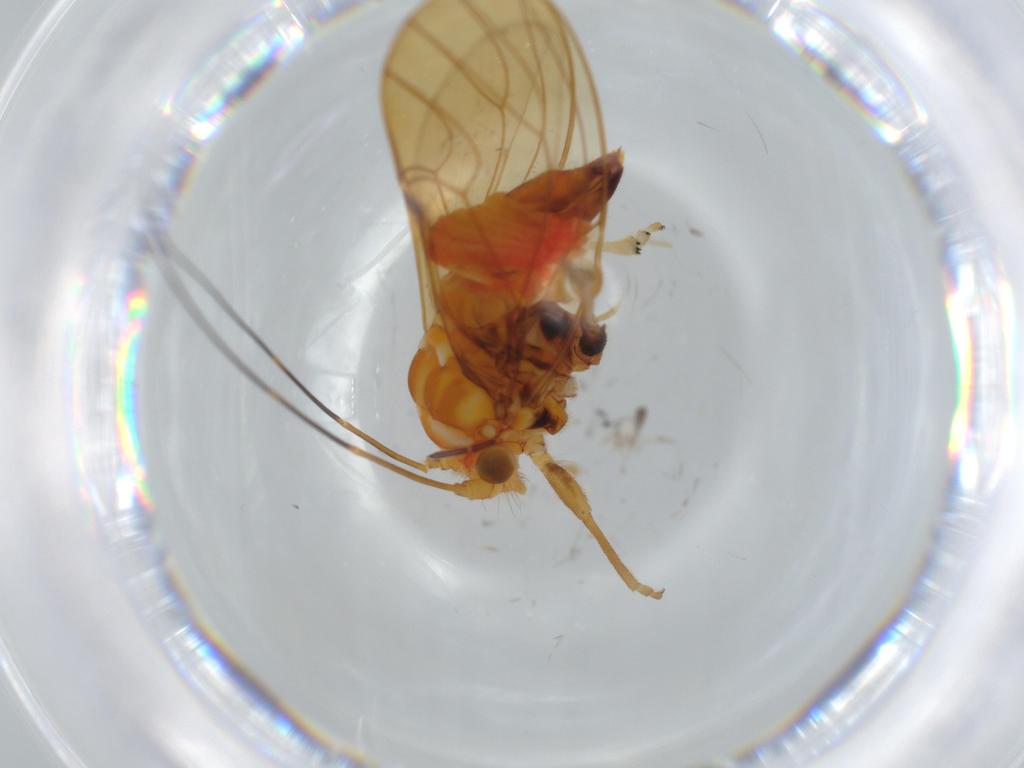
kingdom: Animalia
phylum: Arthropoda
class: Insecta
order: Hemiptera
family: Psyllidae
